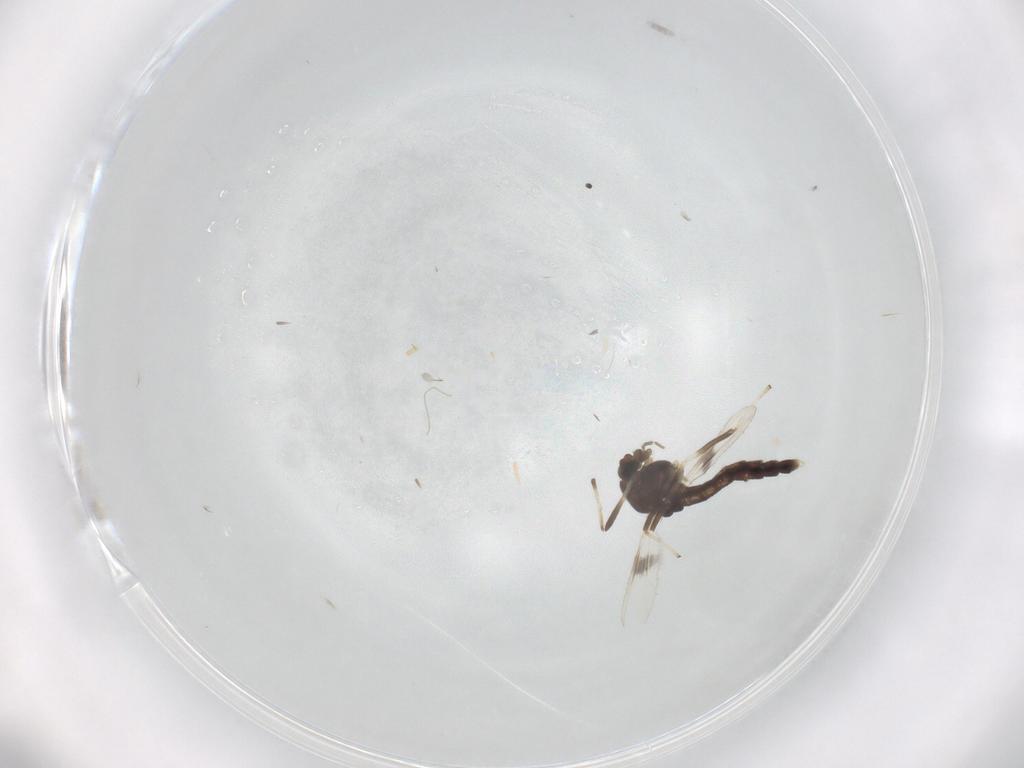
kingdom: Animalia
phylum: Arthropoda
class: Insecta
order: Diptera
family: Chironomidae
